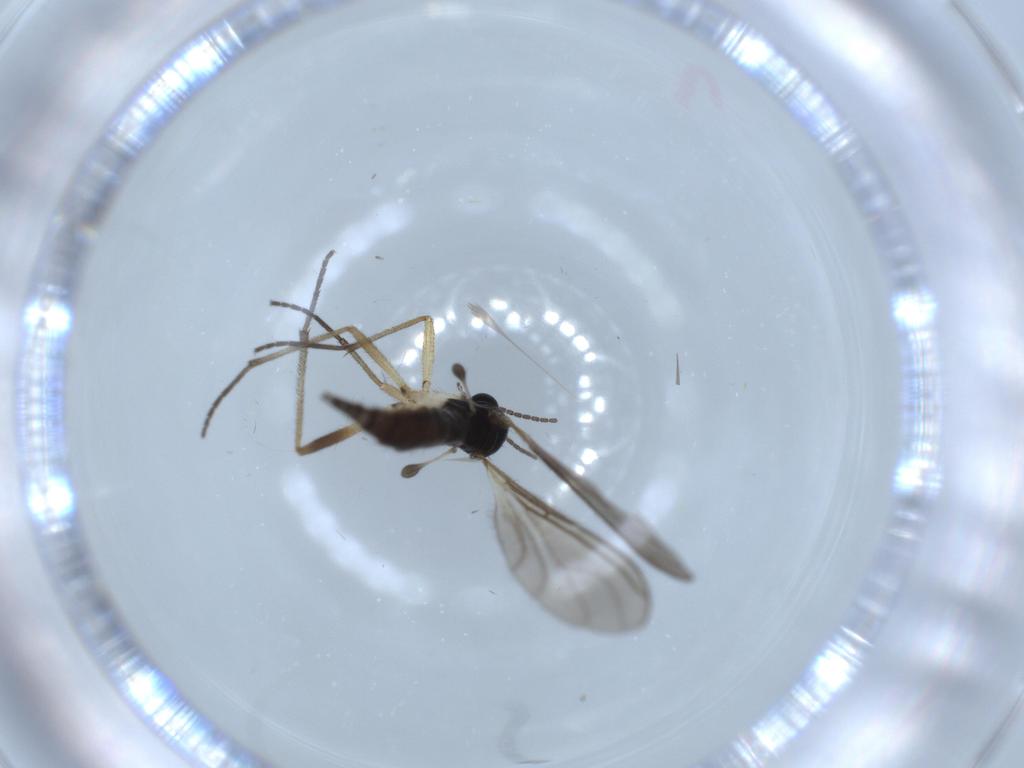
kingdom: Animalia
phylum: Arthropoda
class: Insecta
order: Diptera
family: Sciaridae
